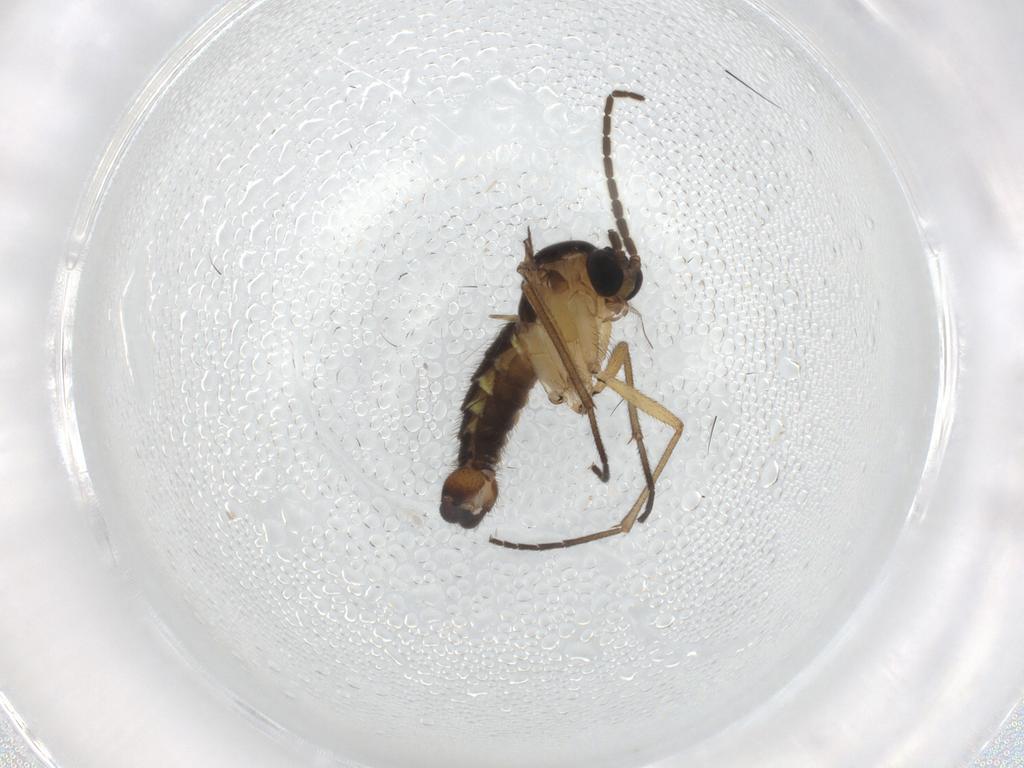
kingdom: Animalia
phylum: Arthropoda
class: Insecta
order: Diptera
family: Sciaridae
